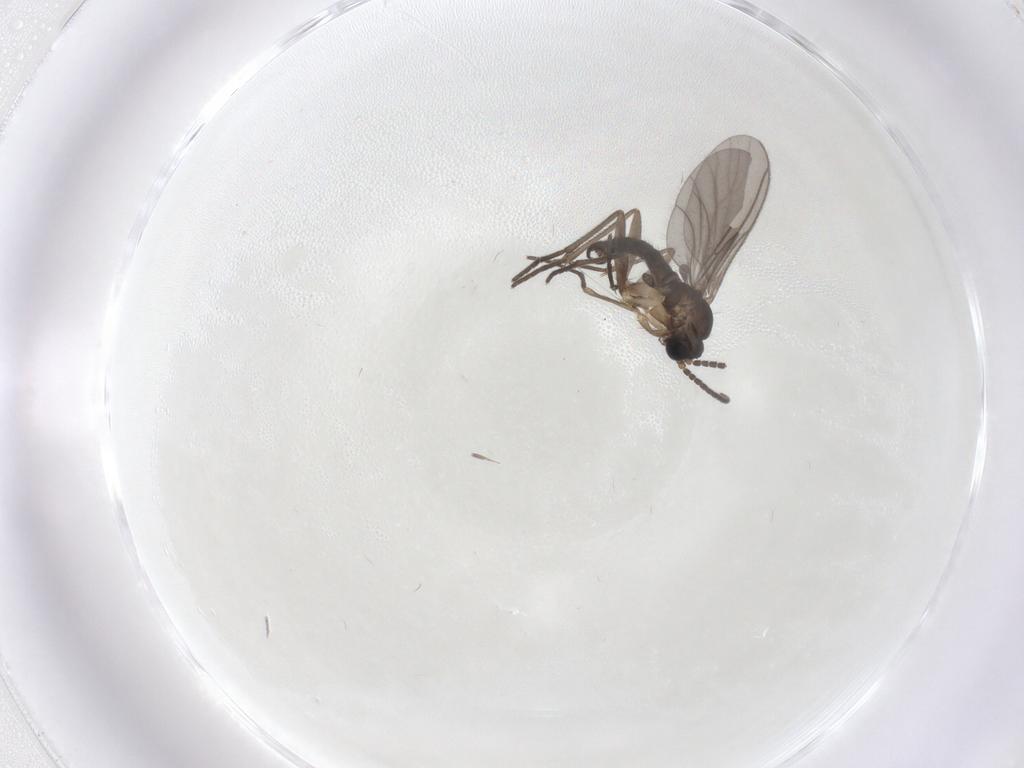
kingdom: Animalia
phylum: Arthropoda
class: Insecta
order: Diptera
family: Sciaridae
